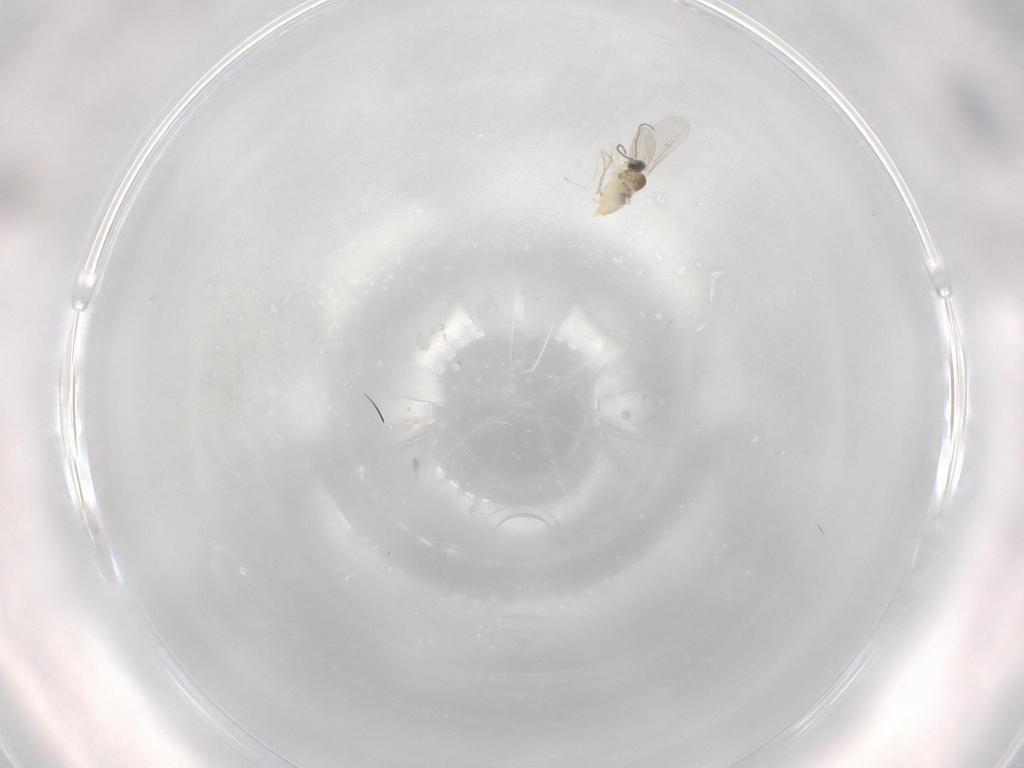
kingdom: Animalia
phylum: Arthropoda
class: Insecta
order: Diptera
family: Cecidomyiidae
